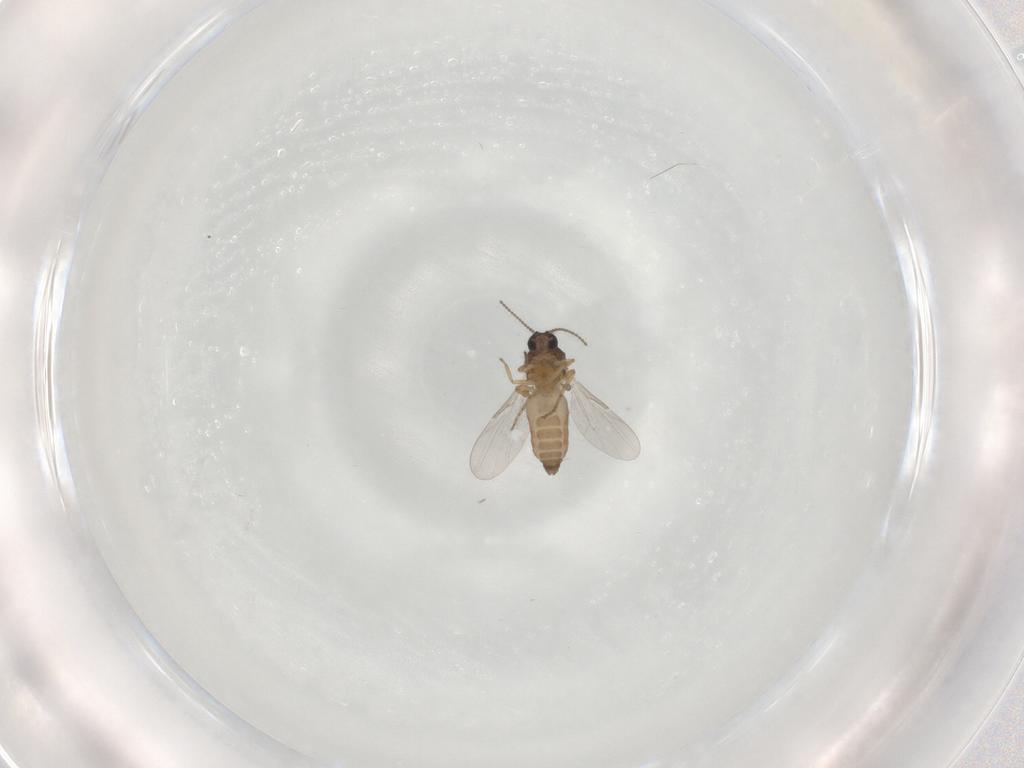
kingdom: Animalia
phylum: Arthropoda
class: Insecta
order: Diptera
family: Ceratopogonidae
